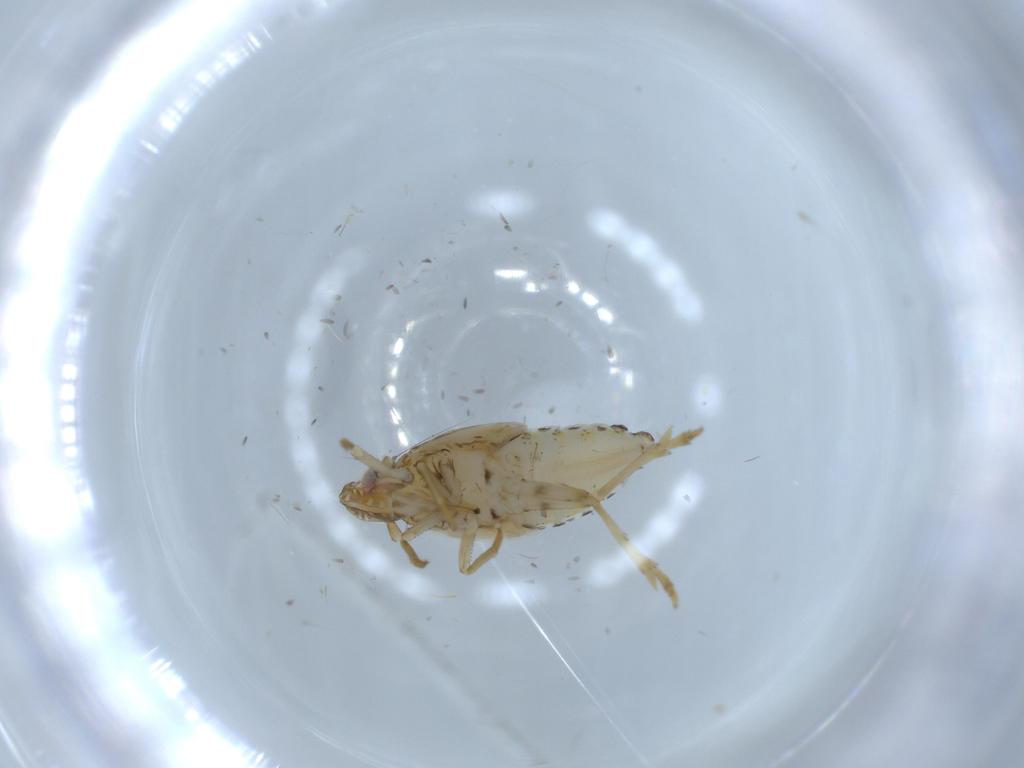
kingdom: Animalia
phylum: Arthropoda
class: Insecta
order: Hemiptera
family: Delphacidae
